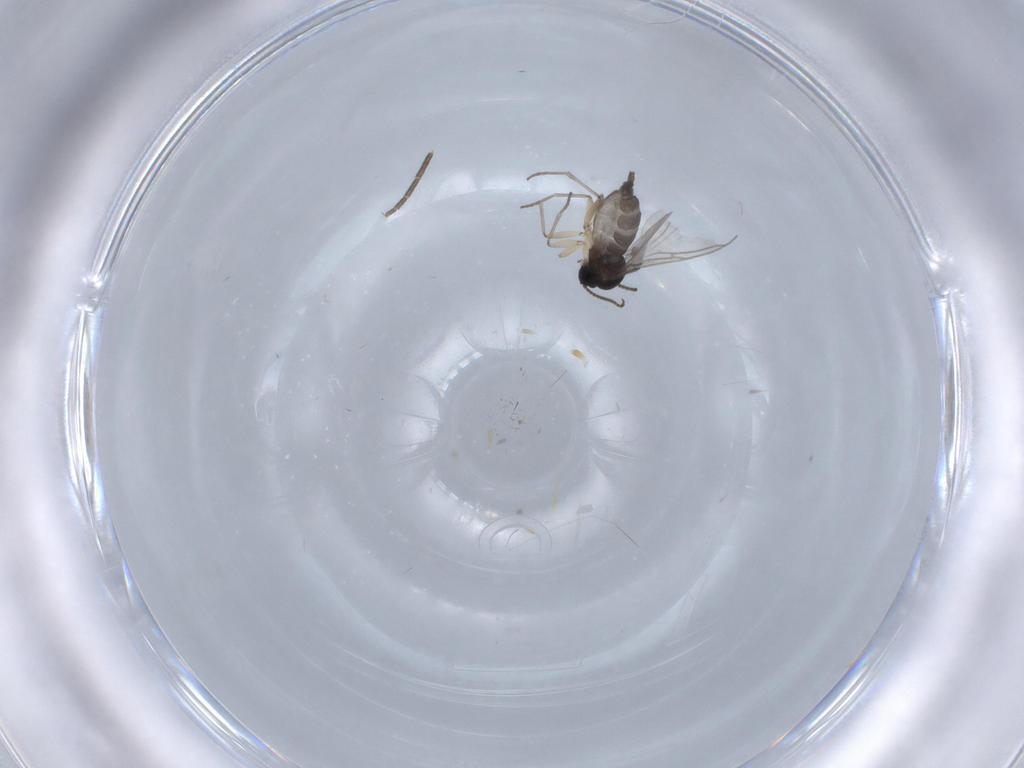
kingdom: Animalia
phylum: Arthropoda
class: Insecta
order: Diptera
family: Sciaridae
